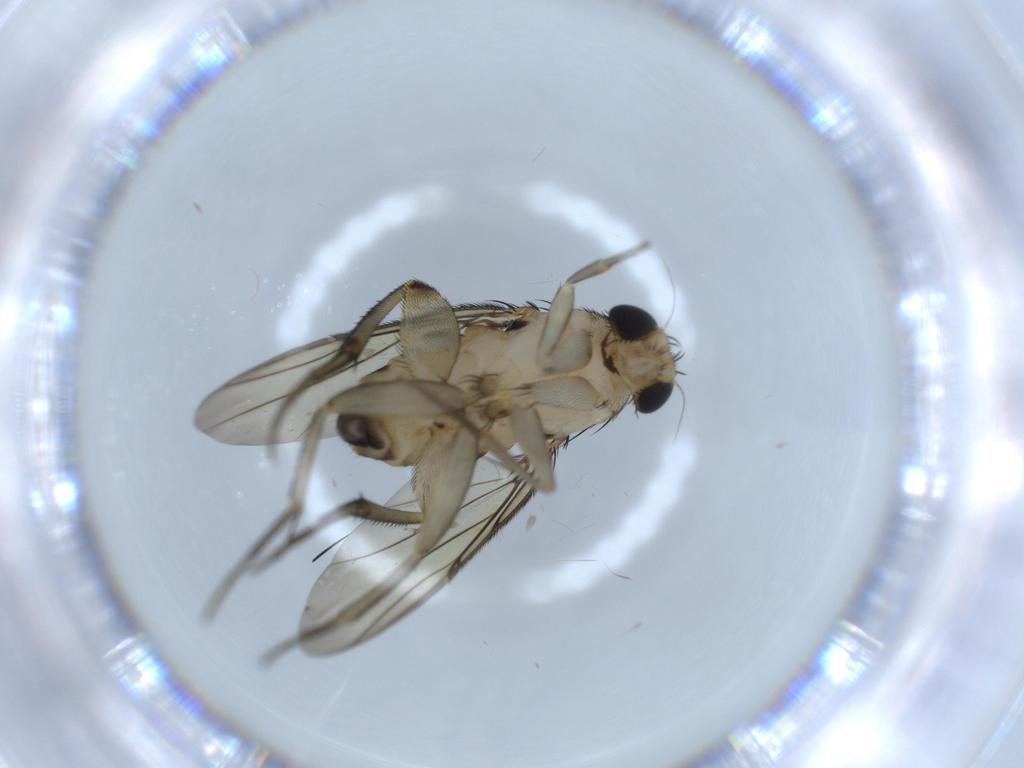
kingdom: Animalia
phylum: Arthropoda
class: Insecta
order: Diptera
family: Phoridae
